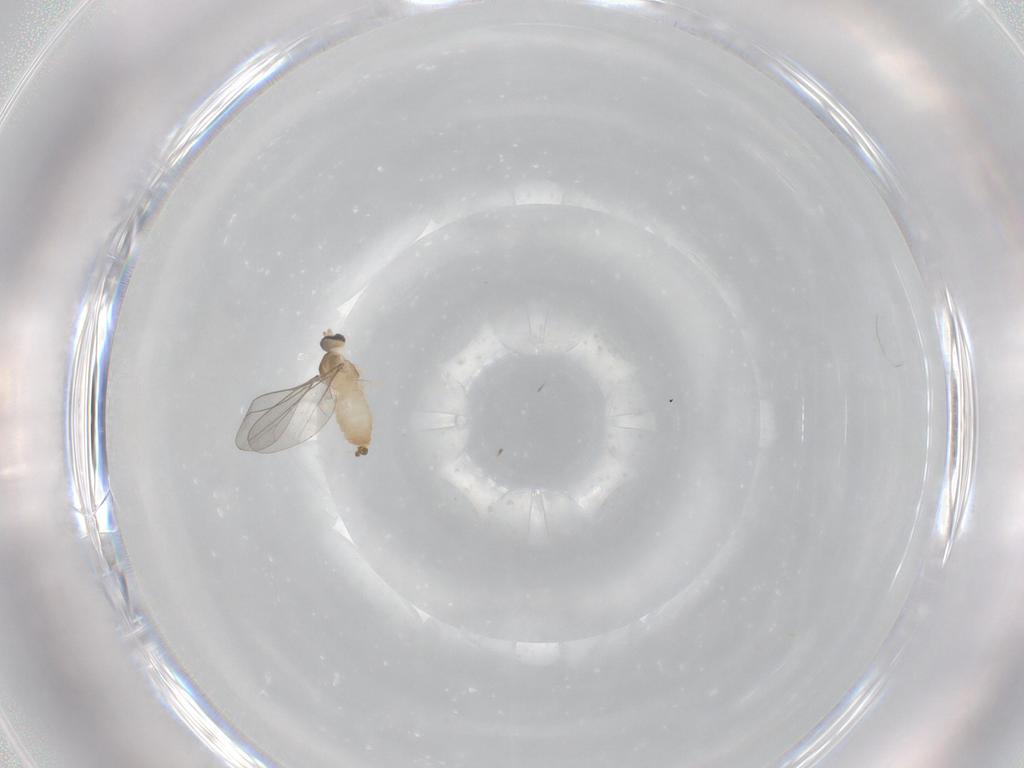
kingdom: Animalia
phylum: Arthropoda
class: Insecta
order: Diptera
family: Cecidomyiidae
